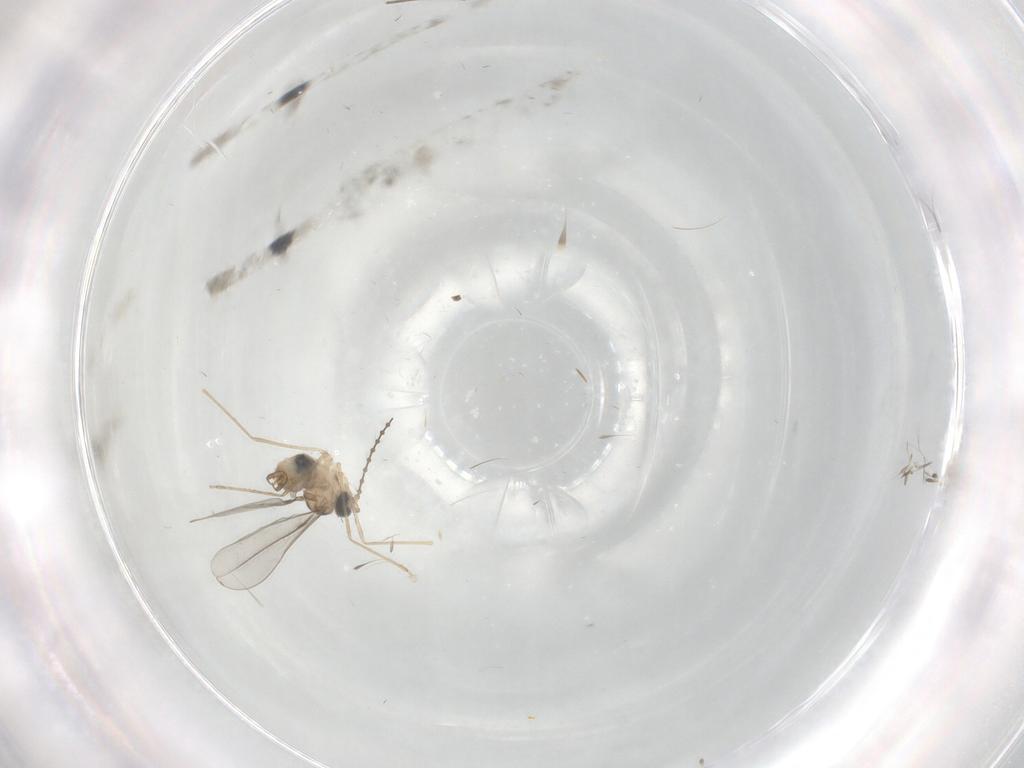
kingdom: Animalia
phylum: Arthropoda
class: Insecta
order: Diptera
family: Cecidomyiidae
